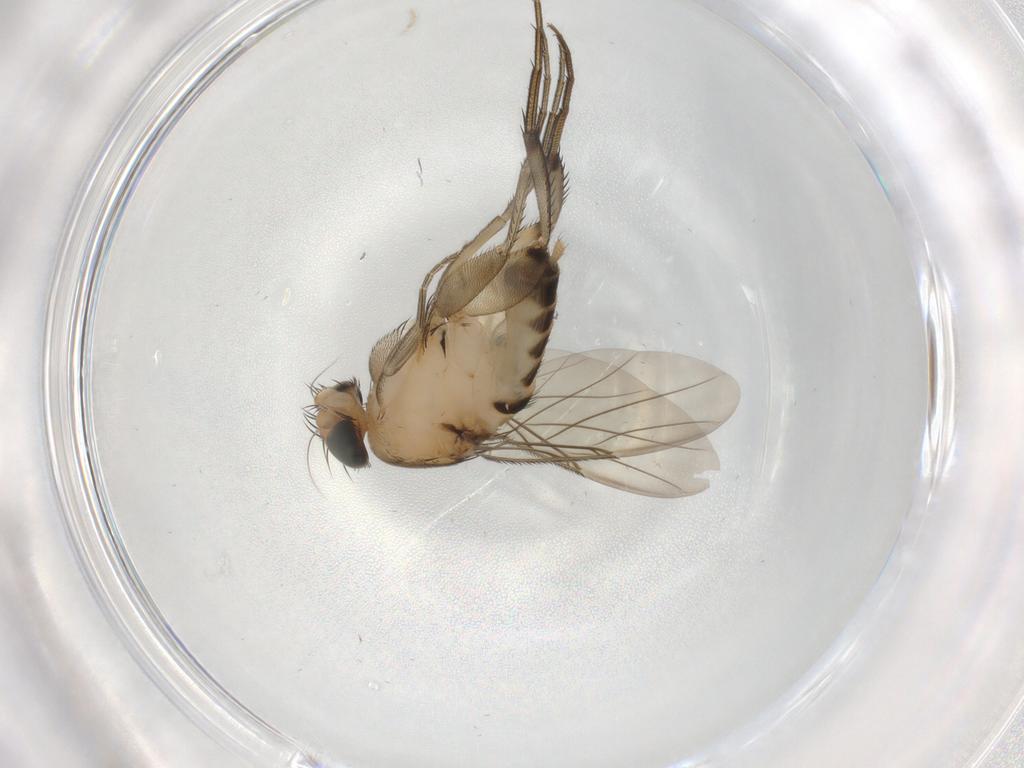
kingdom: Animalia
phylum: Arthropoda
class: Insecta
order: Diptera
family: Phoridae
